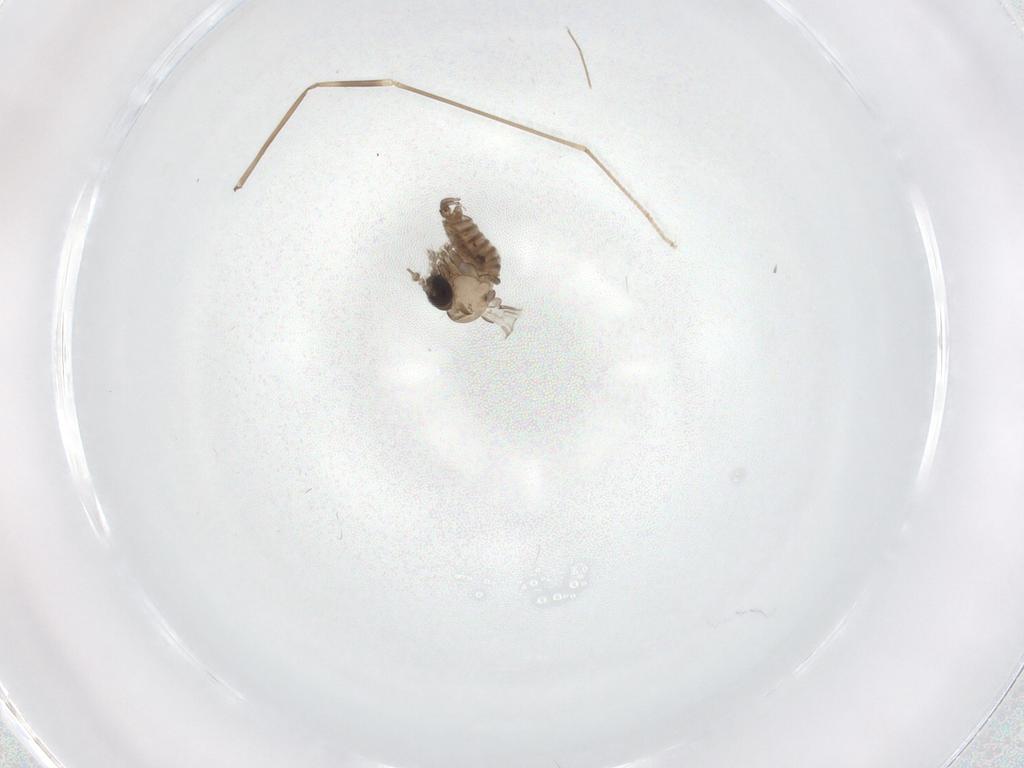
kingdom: Animalia
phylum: Arthropoda
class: Insecta
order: Diptera
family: Psychodidae
